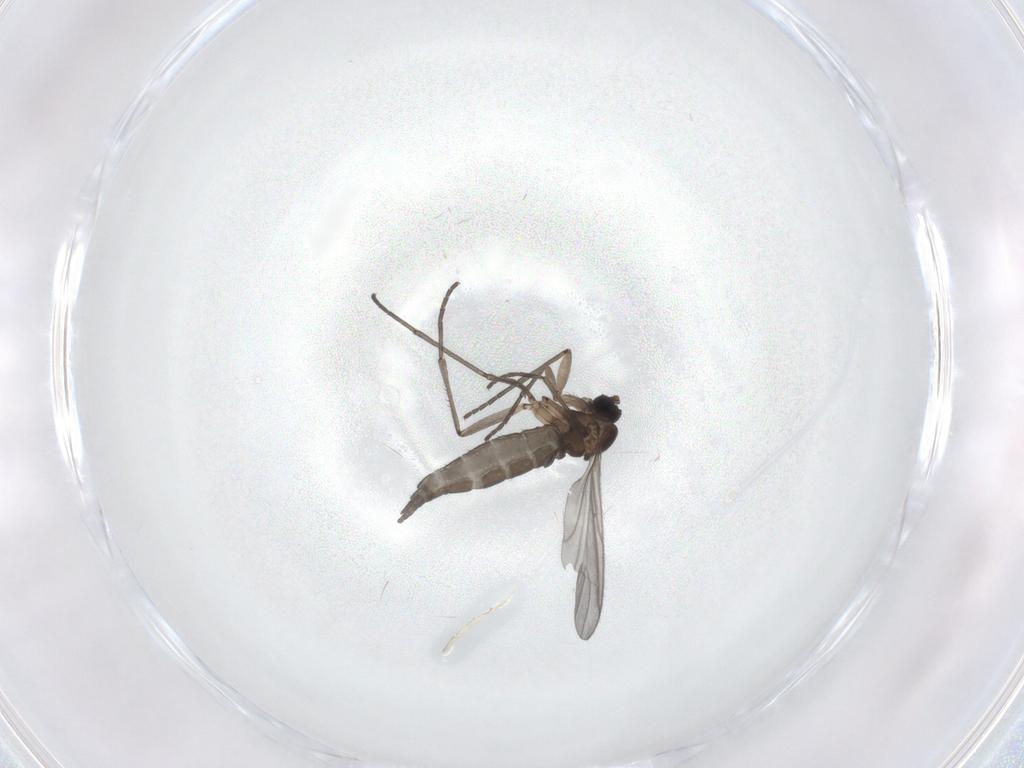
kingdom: Animalia
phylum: Arthropoda
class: Insecta
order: Diptera
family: Sciaridae
